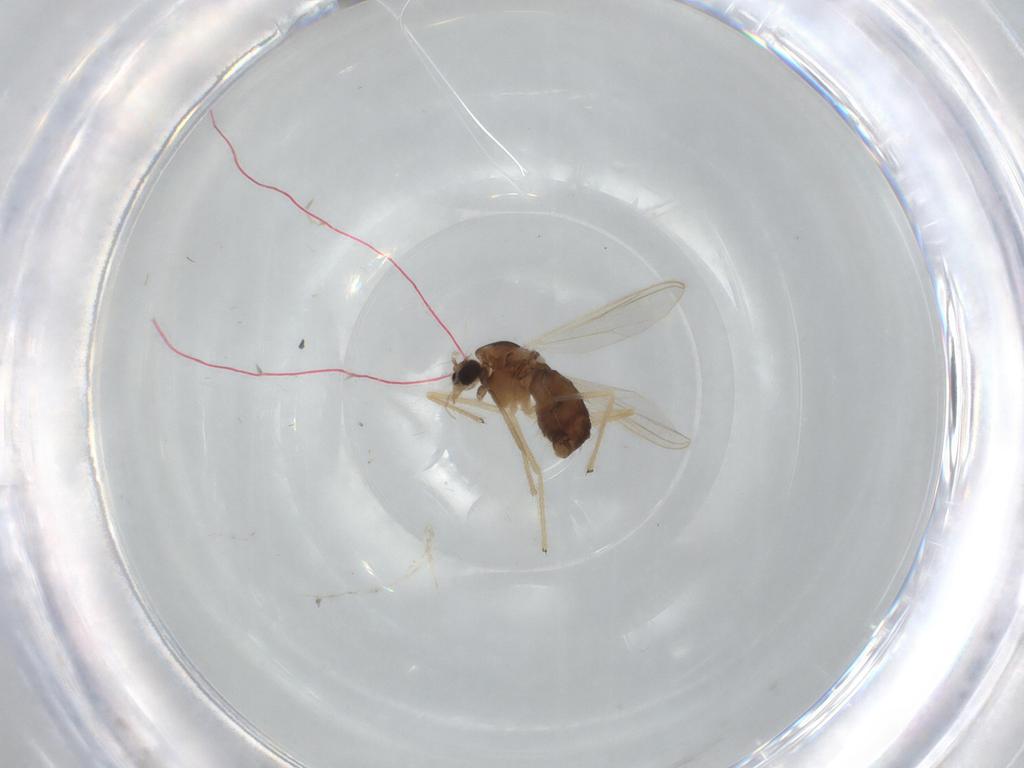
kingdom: Animalia
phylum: Arthropoda
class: Insecta
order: Diptera
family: Chironomidae
